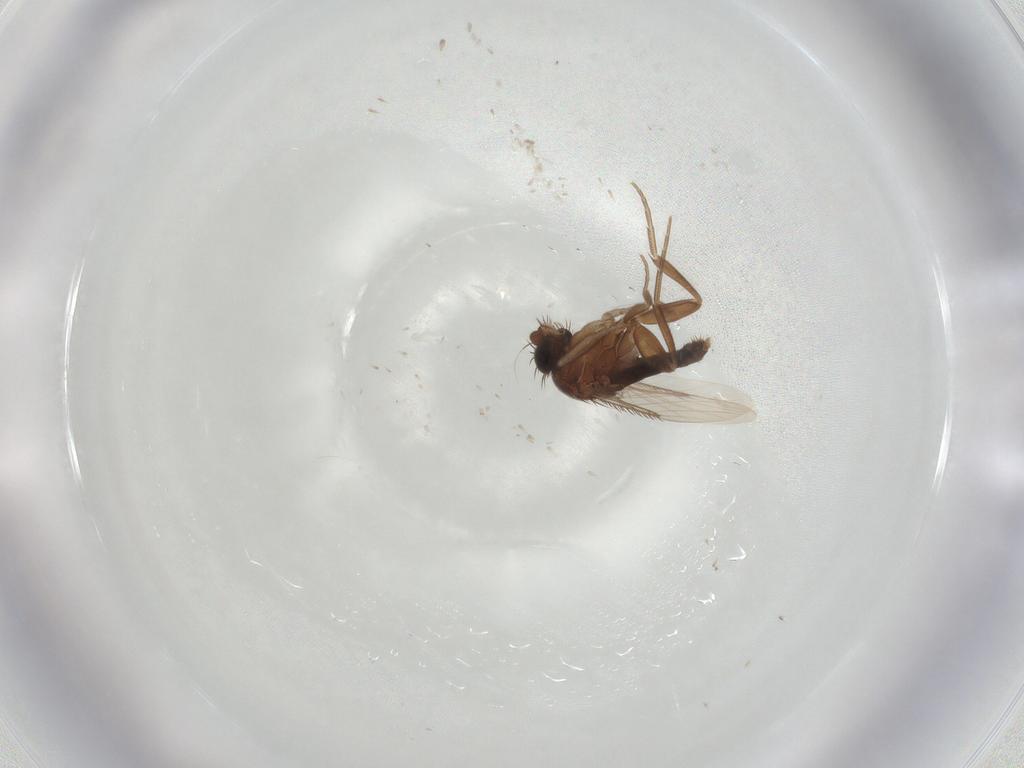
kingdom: Animalia
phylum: Arthropoda
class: Insecta
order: Diptera
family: Phoridae
